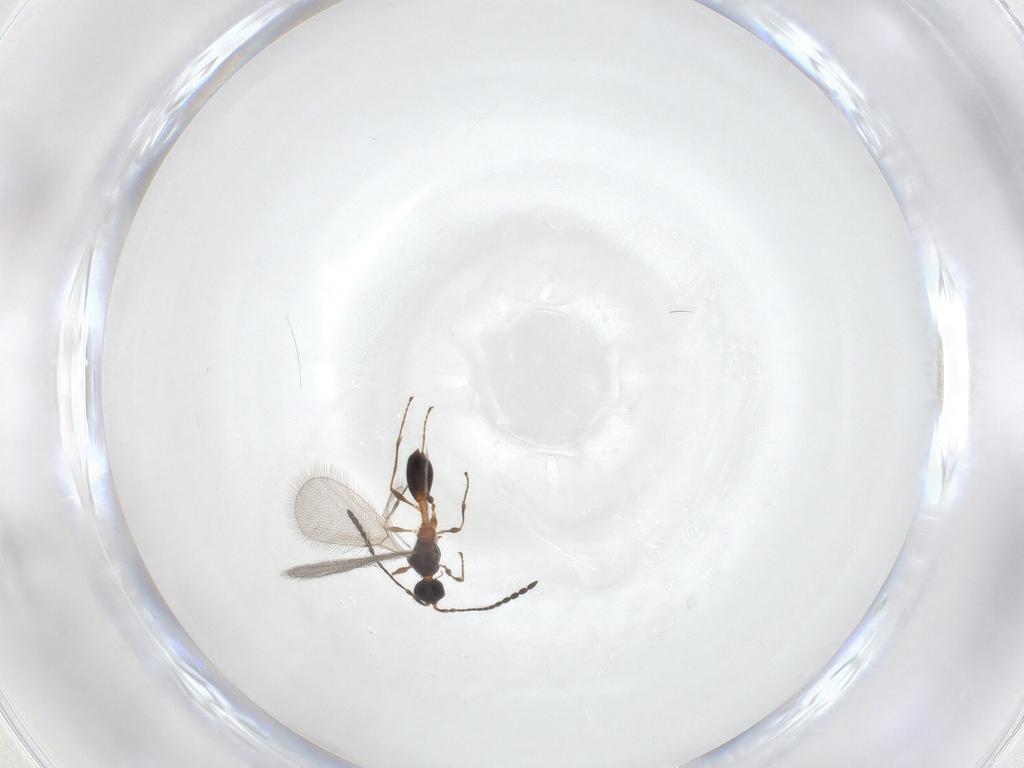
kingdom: Animalia
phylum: Arthropoda
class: Insecta
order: Hymenoptera
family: Diapriidae
